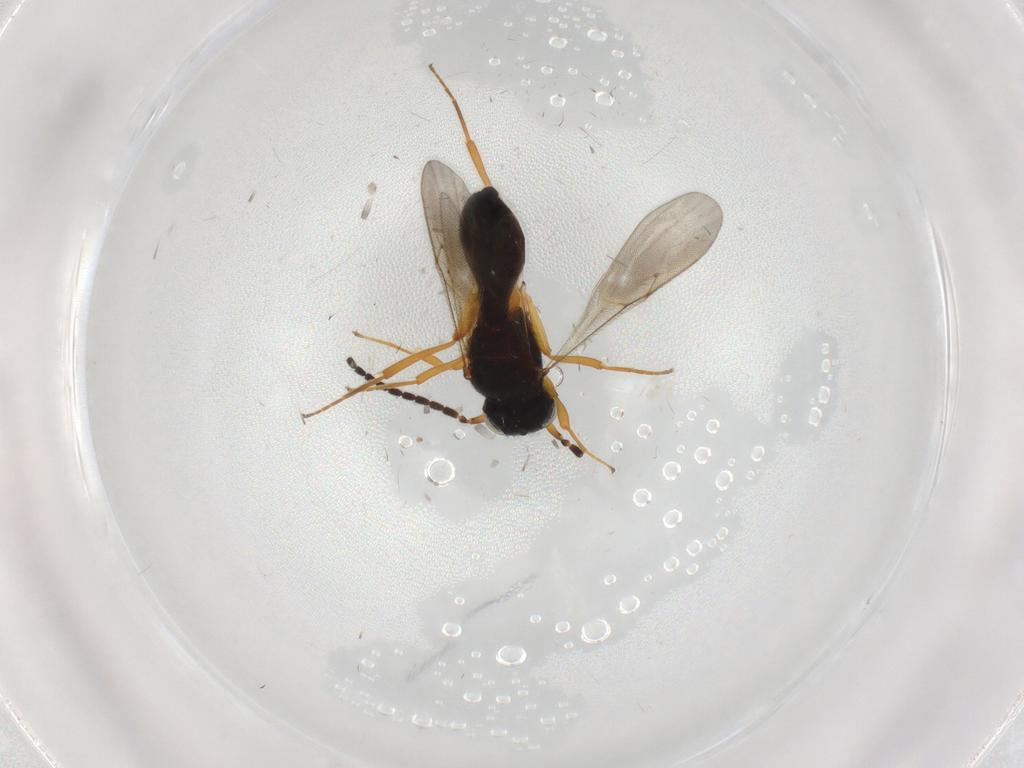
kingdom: Animalia
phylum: Arthropoda
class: Insecta
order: Hymenoptera
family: Scelionidae
